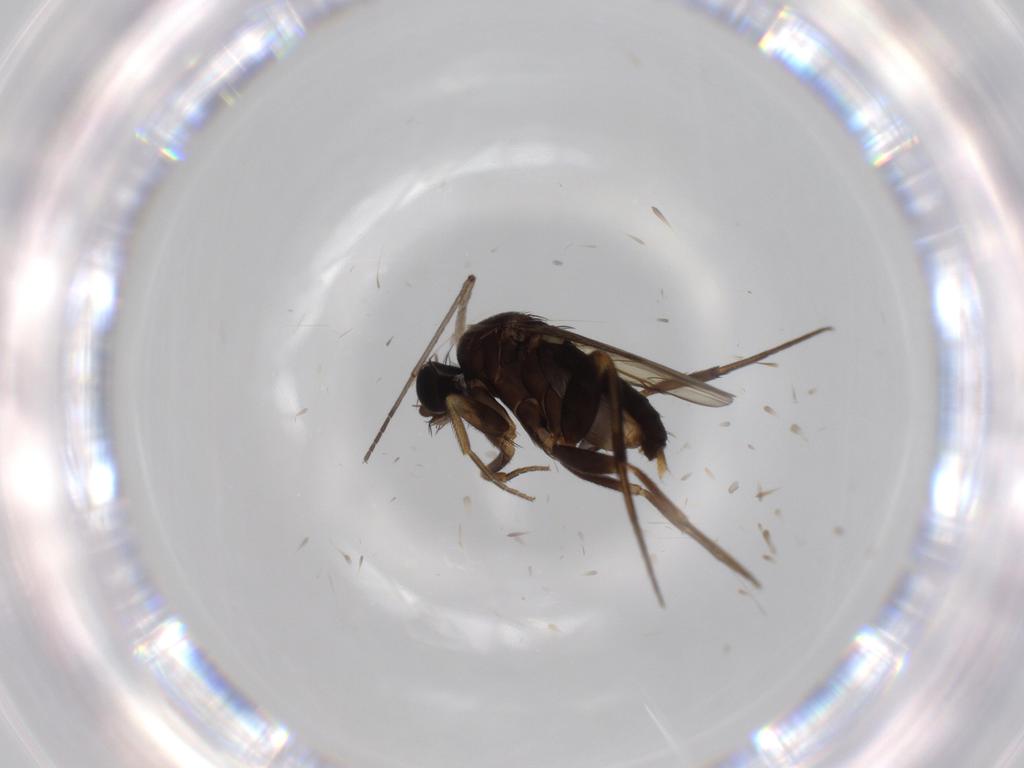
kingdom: Animalia
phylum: Arthropoda
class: Insecta
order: Diptera
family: Phoridae
